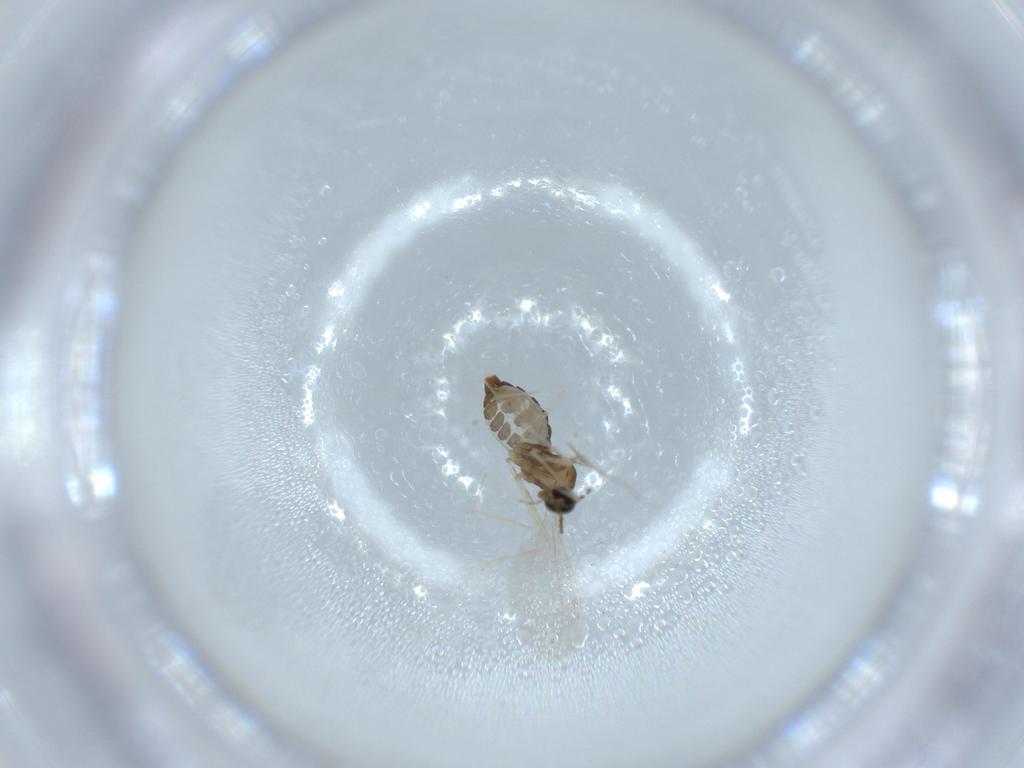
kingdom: Animalia
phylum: Arthropoda
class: Insecta
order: Diptera
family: Cecidomyiidae
